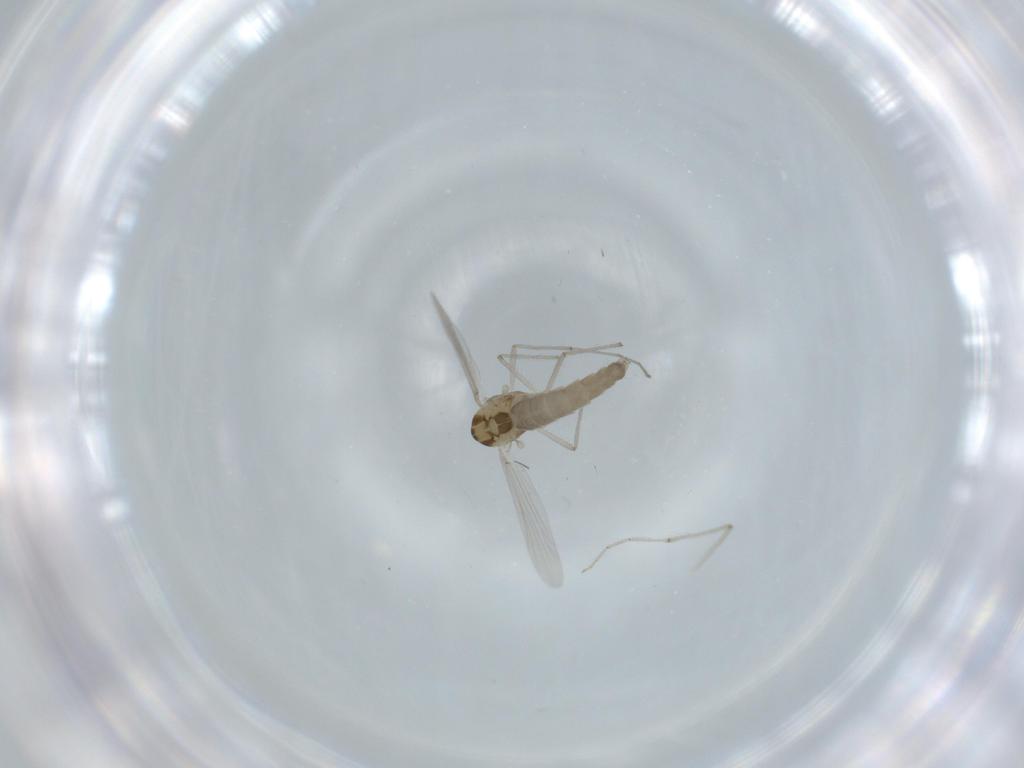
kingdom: Animalia
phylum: Arthropoda
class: Insecta
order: Diptera
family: Chironomidae
